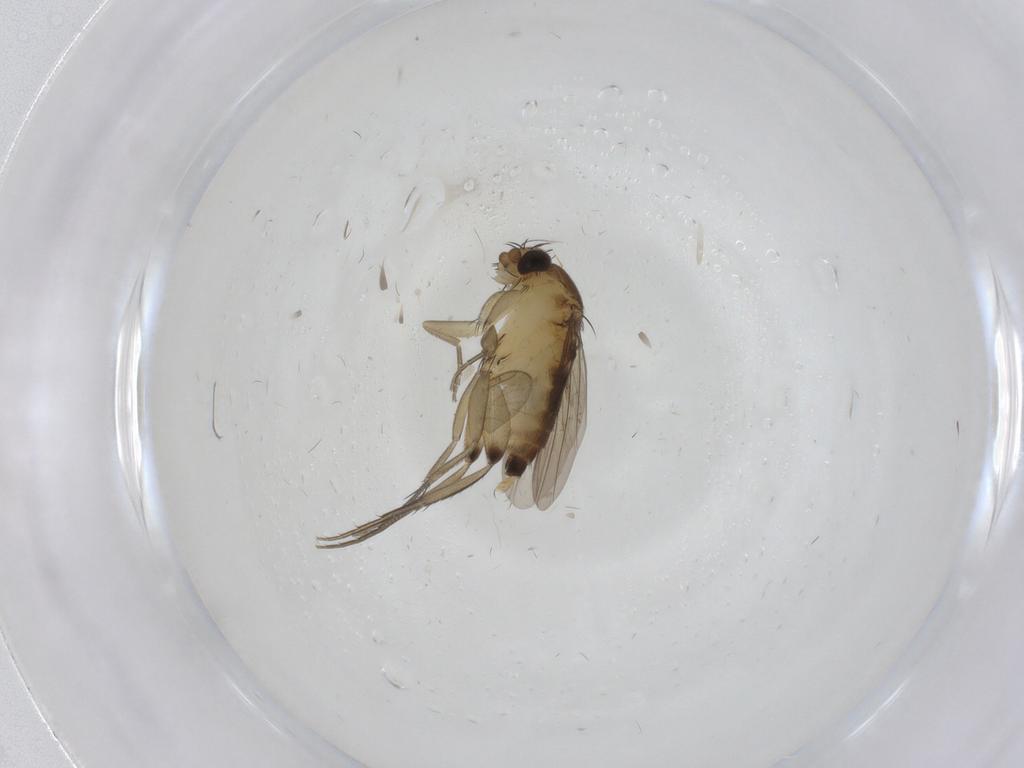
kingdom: Animalia
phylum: Arthropoda
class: Insecta
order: Diptera
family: Phoridae
